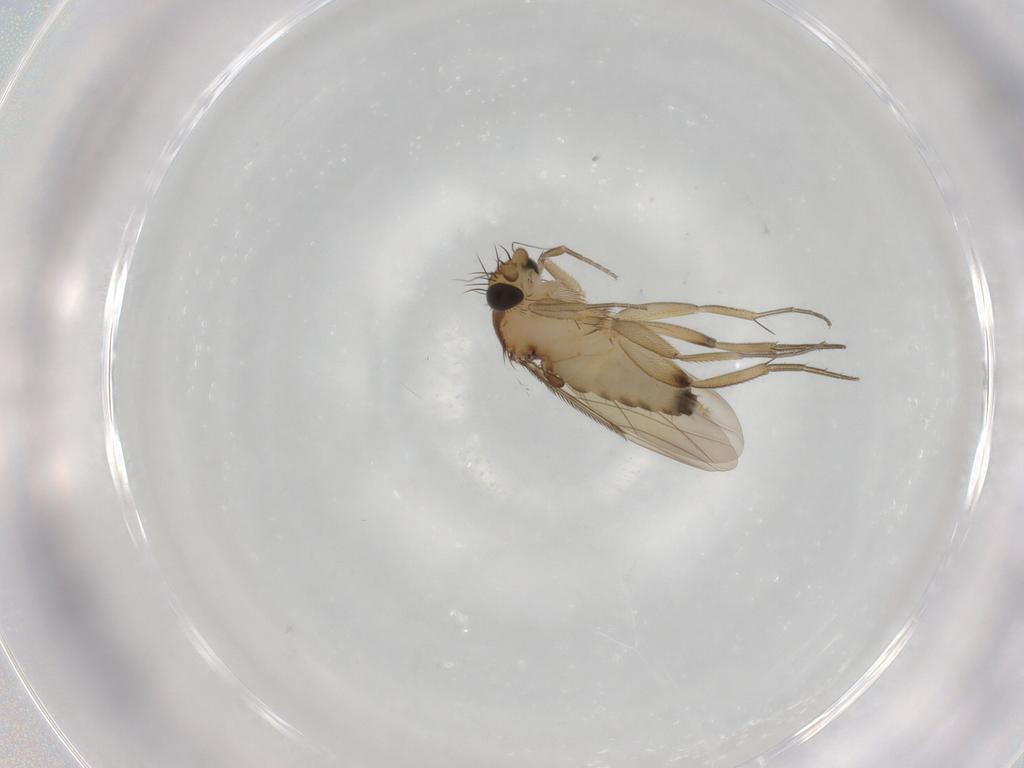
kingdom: Animalia
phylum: Arthropoda
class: Insecta
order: Diptera
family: Phoridae
